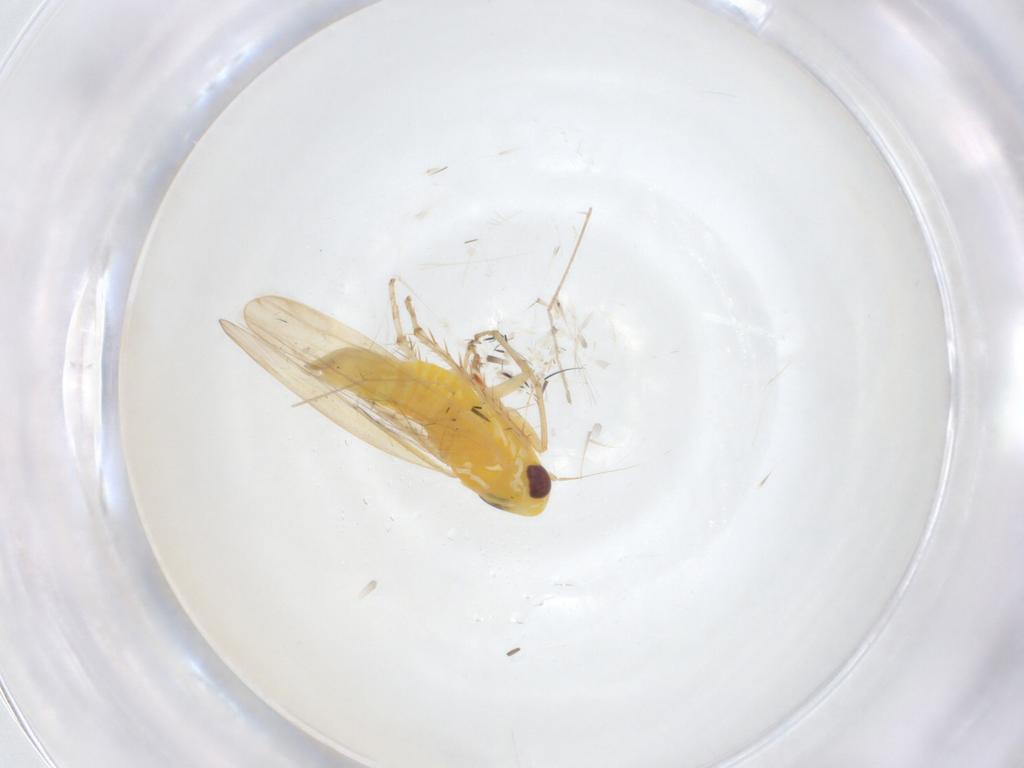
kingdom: Animalia
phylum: Arthropoda
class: Insecta
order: Hemiptera
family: Cicadellidae
